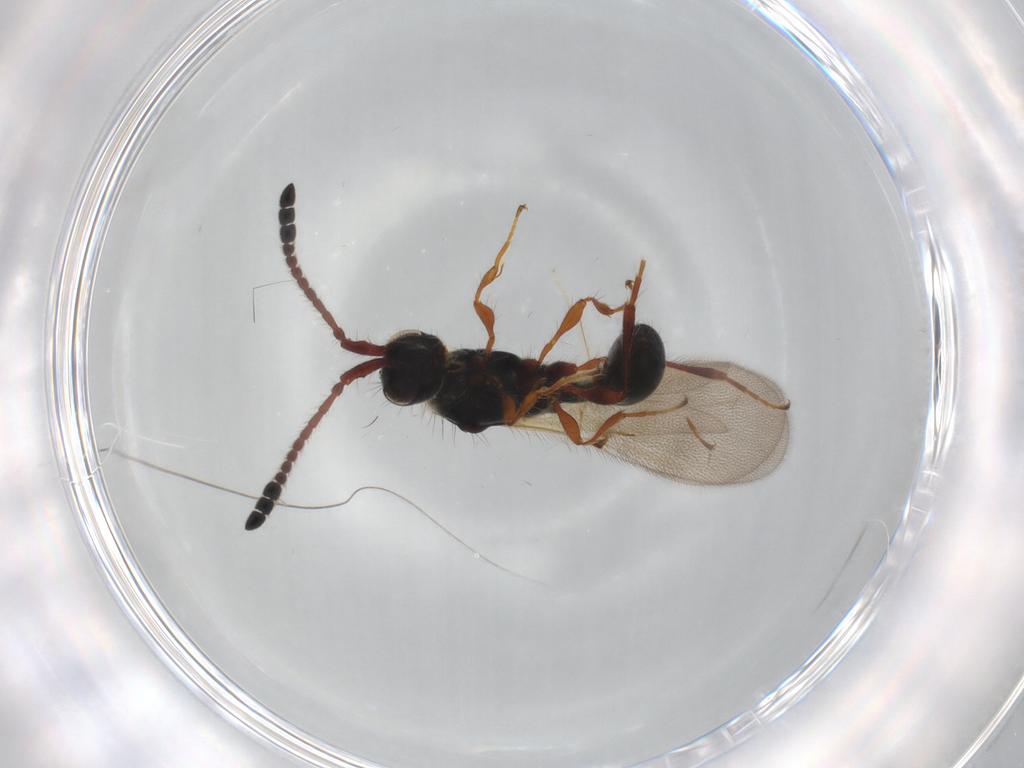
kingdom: Animalia
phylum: Arthropoda
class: Insecta
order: Hymenoptera
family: Diapriidae
